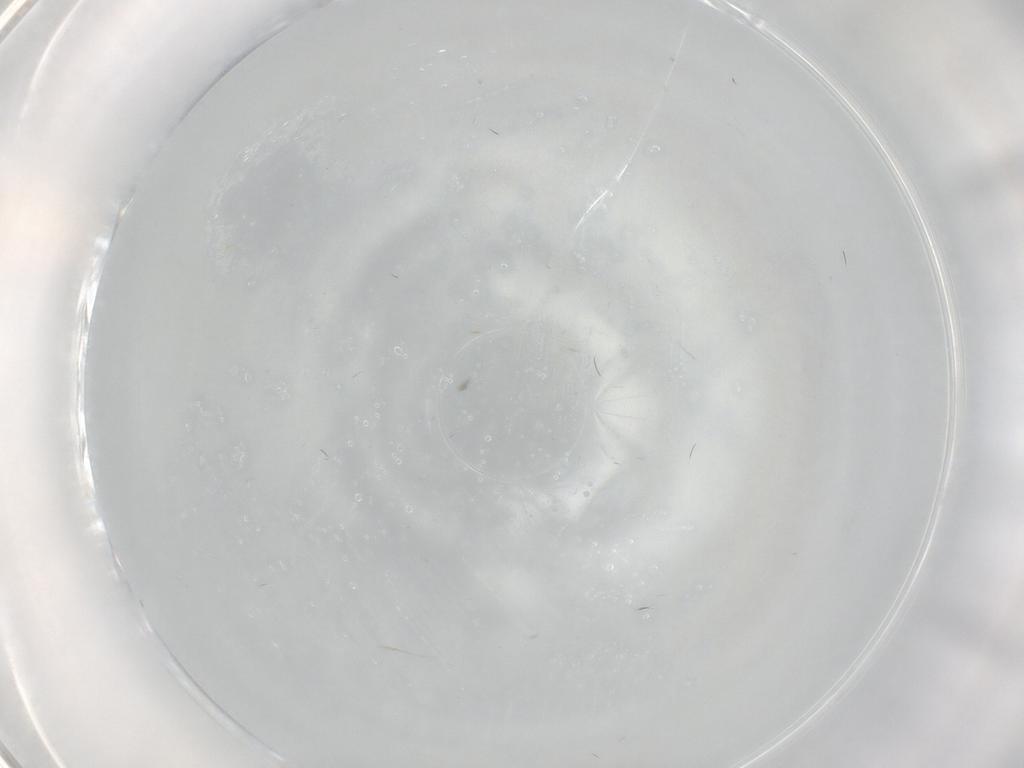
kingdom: Animalia
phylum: Arthropoda
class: Insecta
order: Diptera
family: Cecidomyiidae
